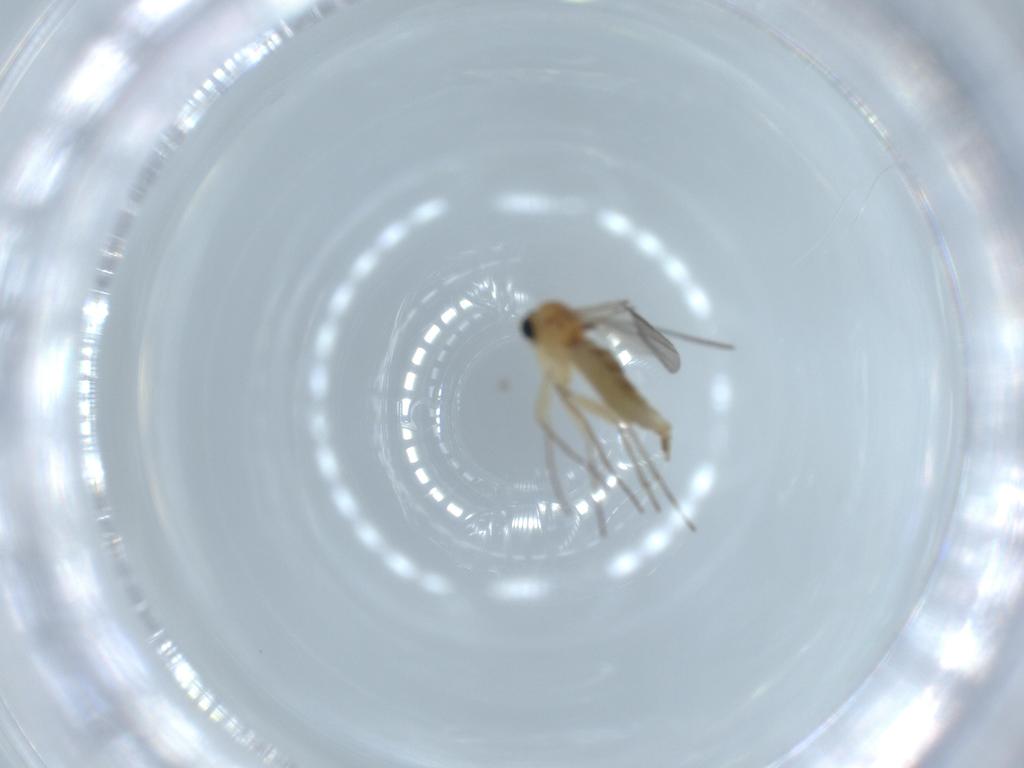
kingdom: Animalia
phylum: Arthropoda
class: Insecta
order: Diptera
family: Sciaridae
